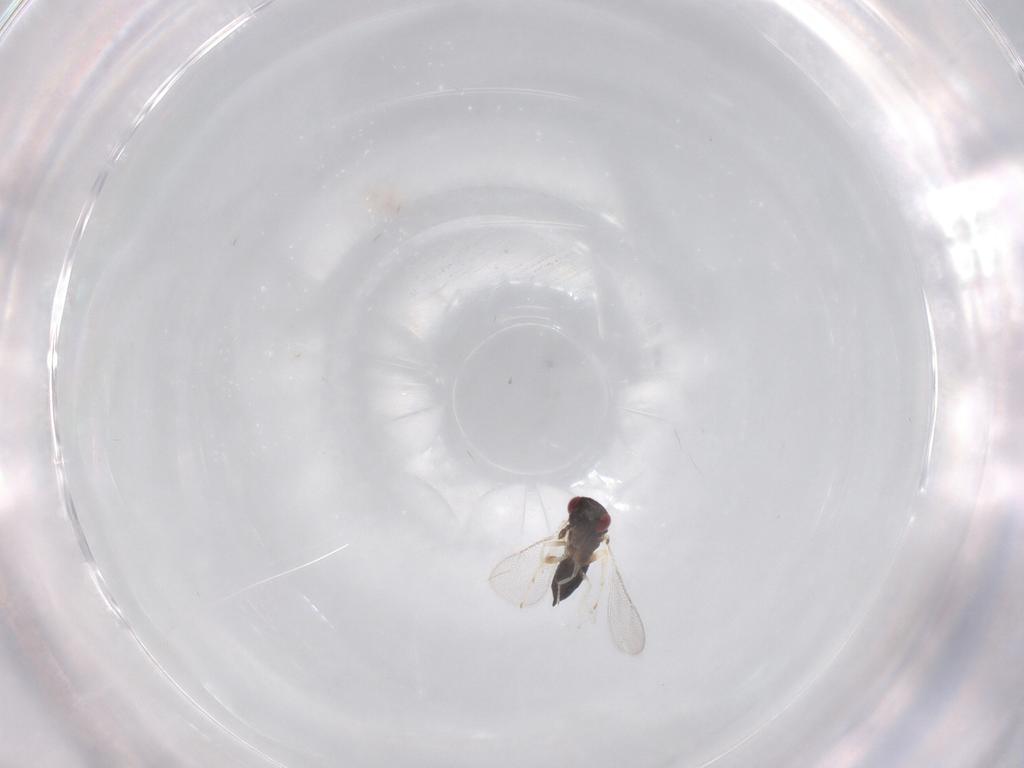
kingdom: Animalia
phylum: Arthropoda
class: Insecta
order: Hymenoptera
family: Eulophidae
